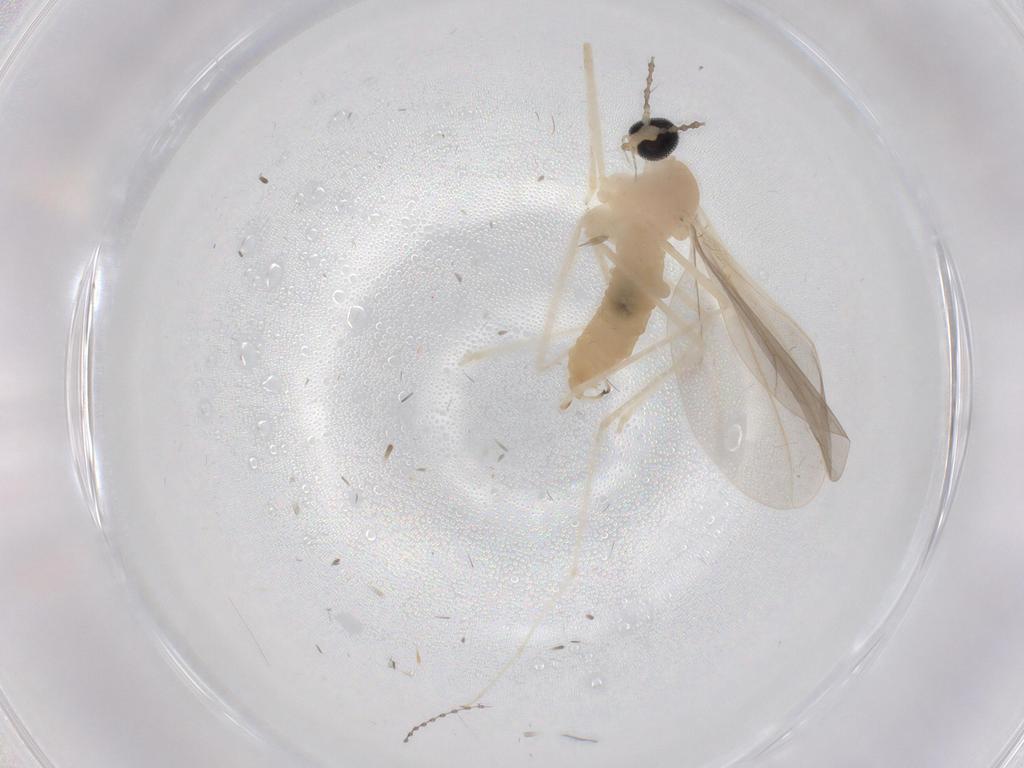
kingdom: Animalia
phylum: Arthropoda
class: Insecta
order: Diptera
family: Cecidomyiidae
